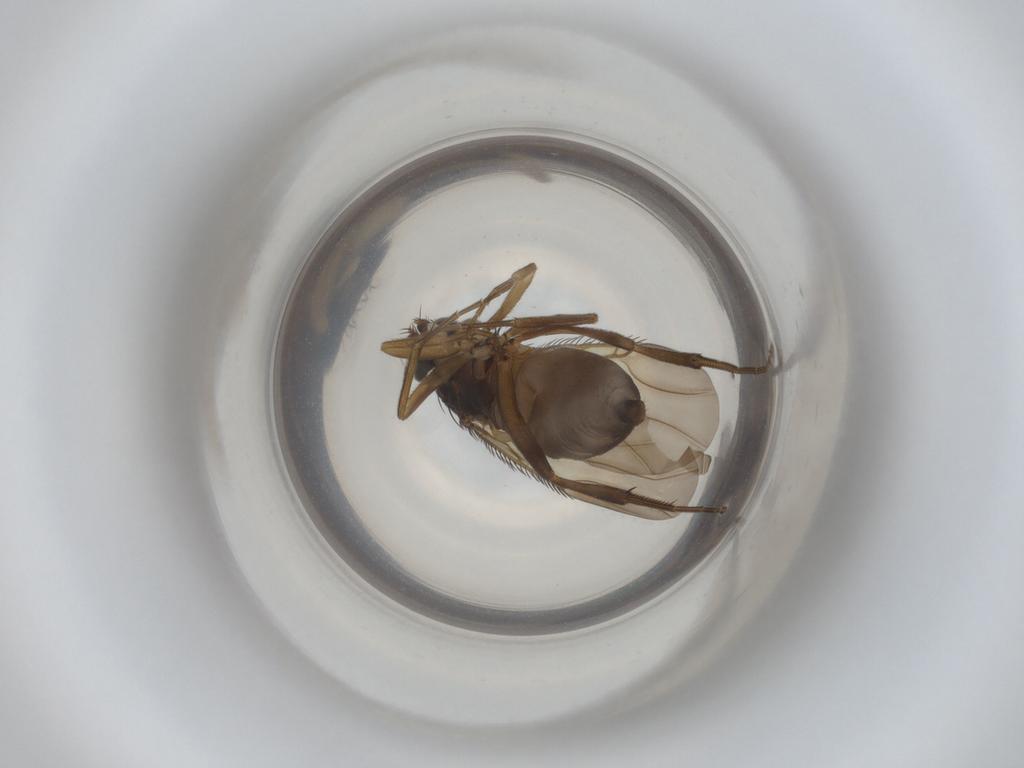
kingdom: Animalia
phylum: Arthropoda
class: Insecta
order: Diptera
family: Phoridae
